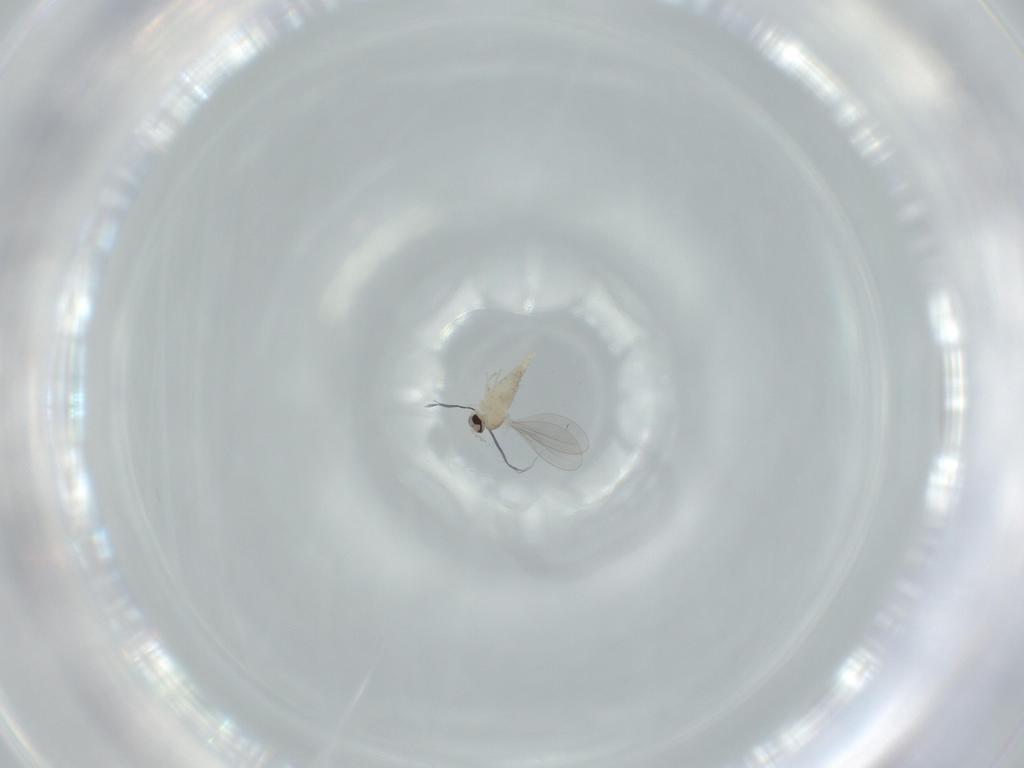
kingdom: Animalia
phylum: Arthropoda
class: Insecta
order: Diptera
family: Cecidomyiidae
